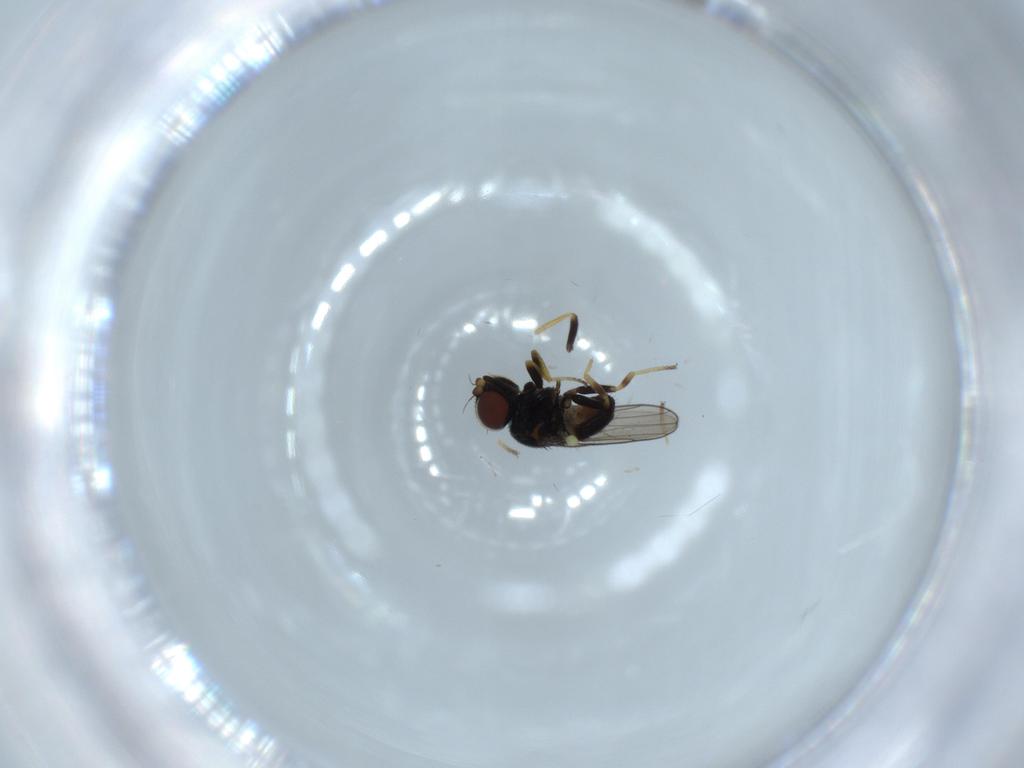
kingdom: Animalia
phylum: Arthropoda
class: Insecta
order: Diptera
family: Chloropidae
